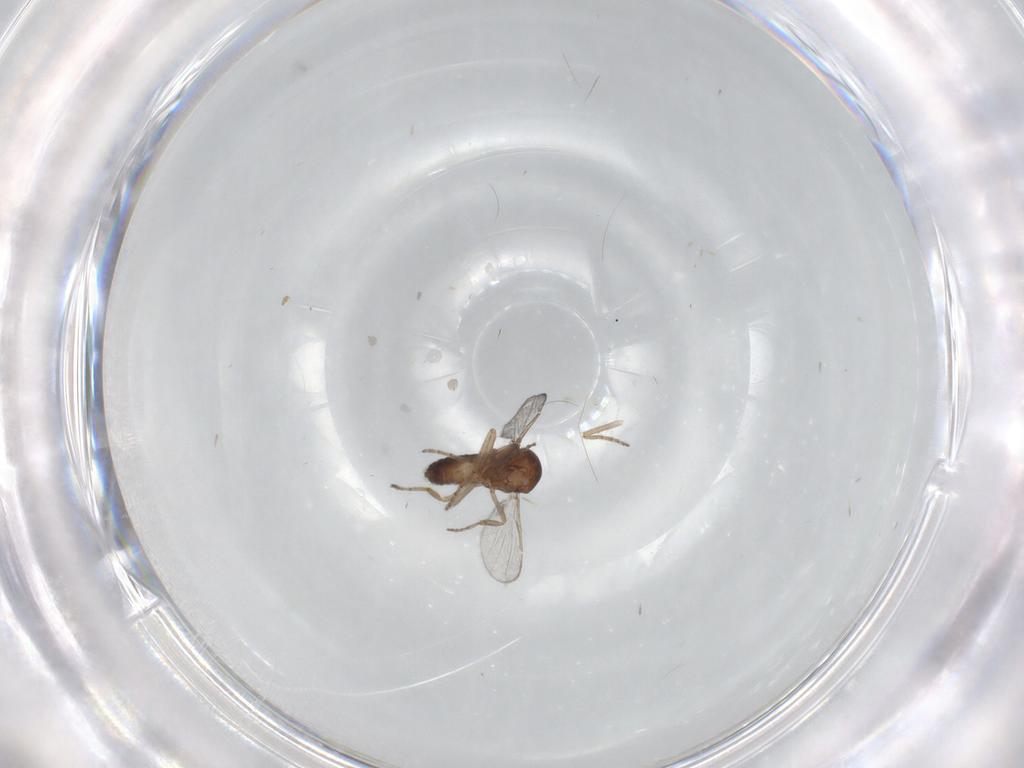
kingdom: Animalia
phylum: Arthropoda
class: Insecta
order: Diptera
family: Ceratopogonidae
